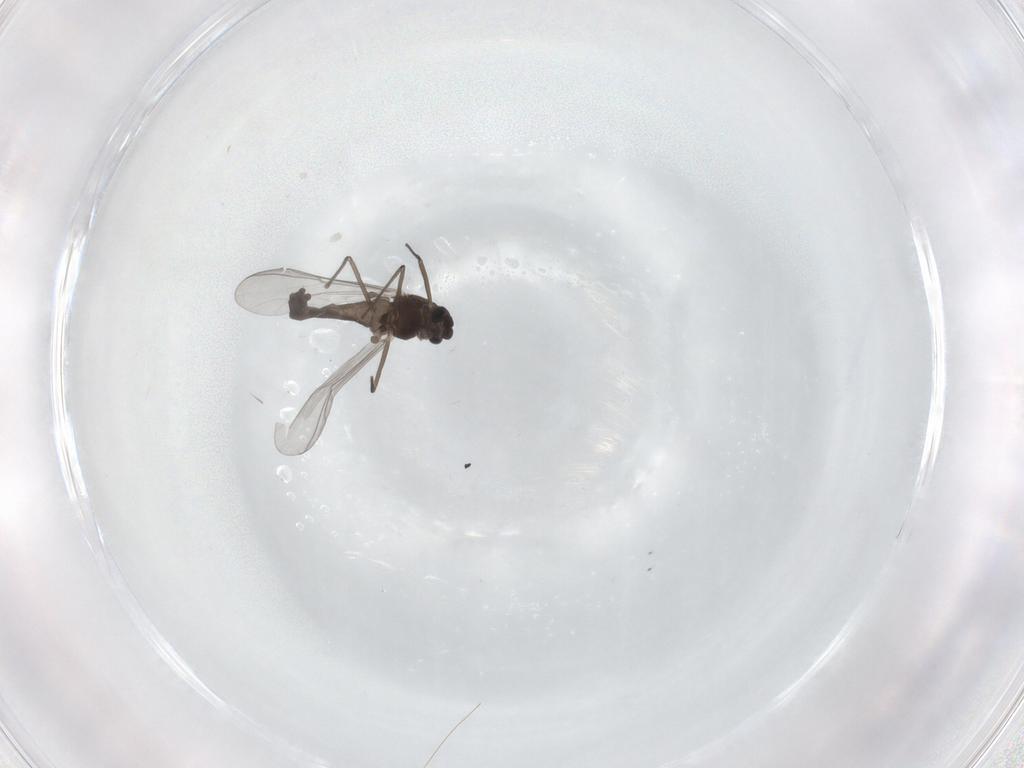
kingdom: Animalia
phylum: Arthropoda
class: Insecta
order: Diptera
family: Chironomidae
